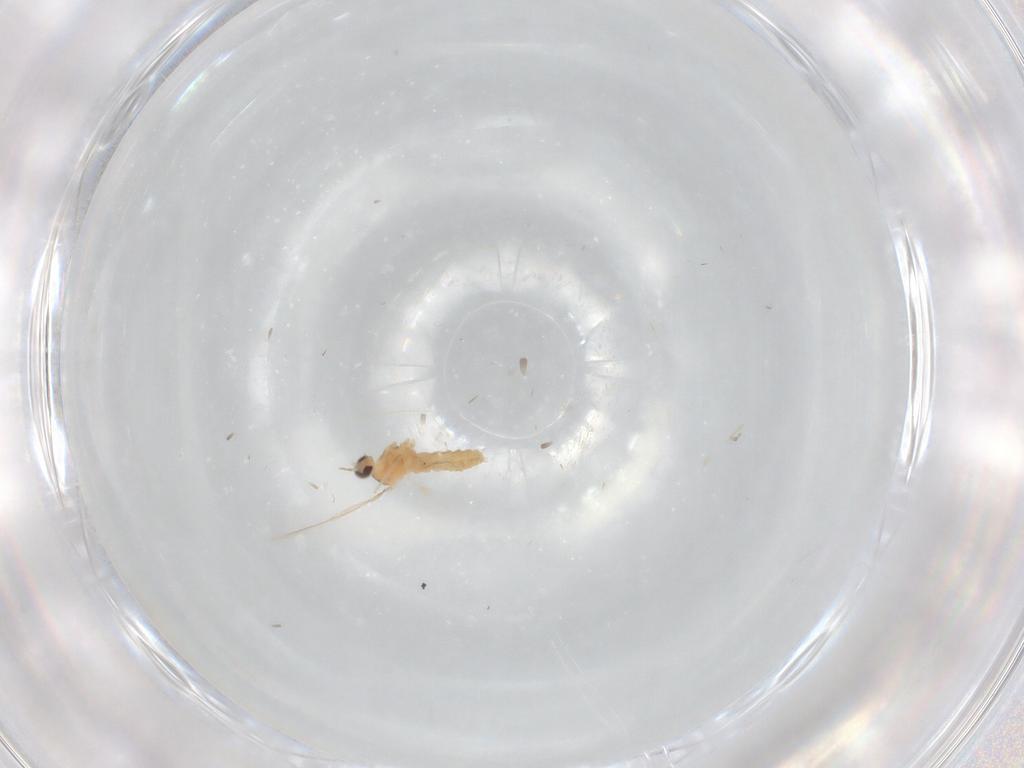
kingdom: Animalia
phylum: Arthropoda
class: Insecta
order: Diptera
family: Cecidomyiidae
